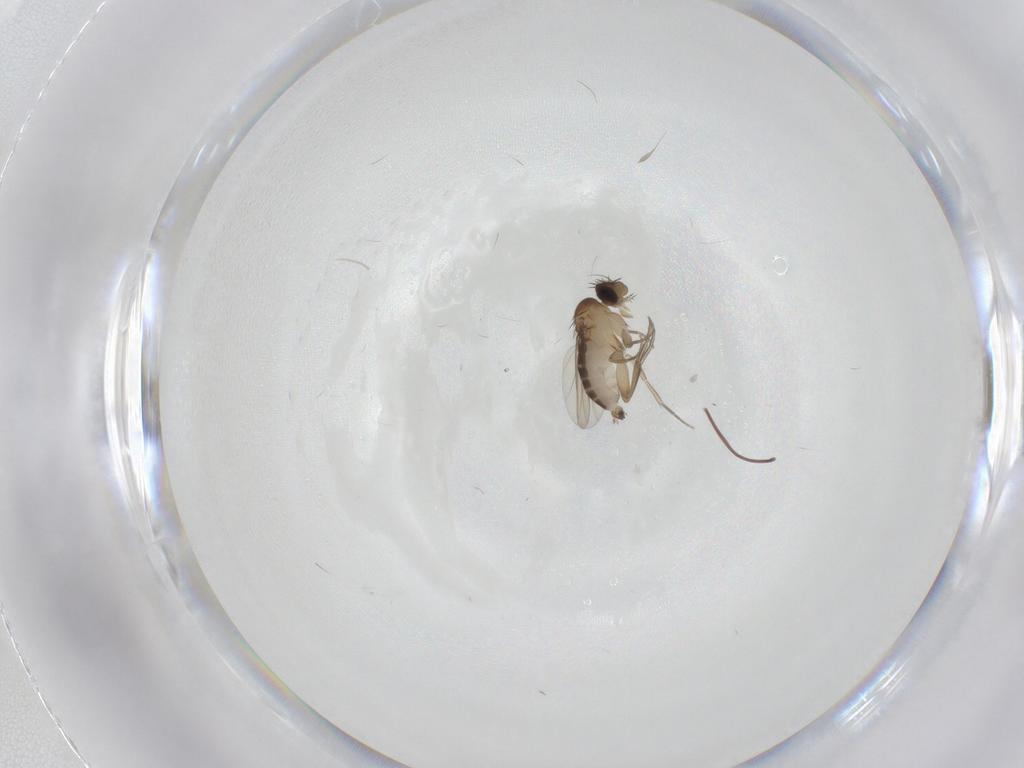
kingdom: Animalia
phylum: Arthropoda
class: Insecta
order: Diptera
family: Phoridae
